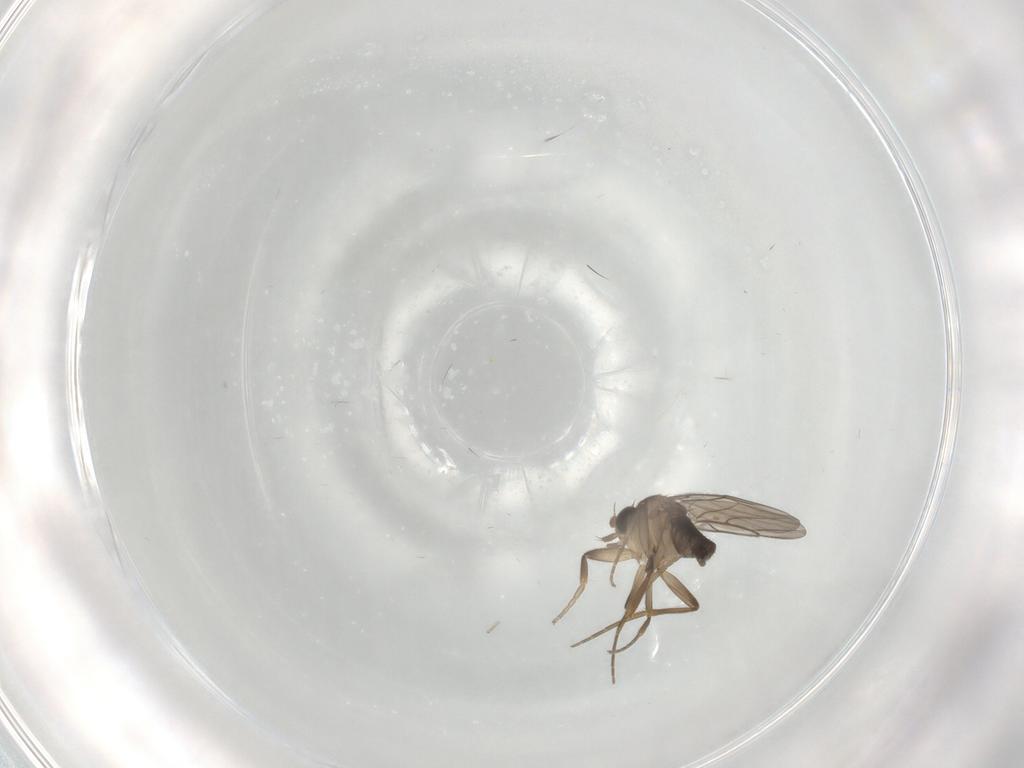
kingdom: Animalia
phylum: Arthropoda
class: Insecta
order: Diptera
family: Phoridae
